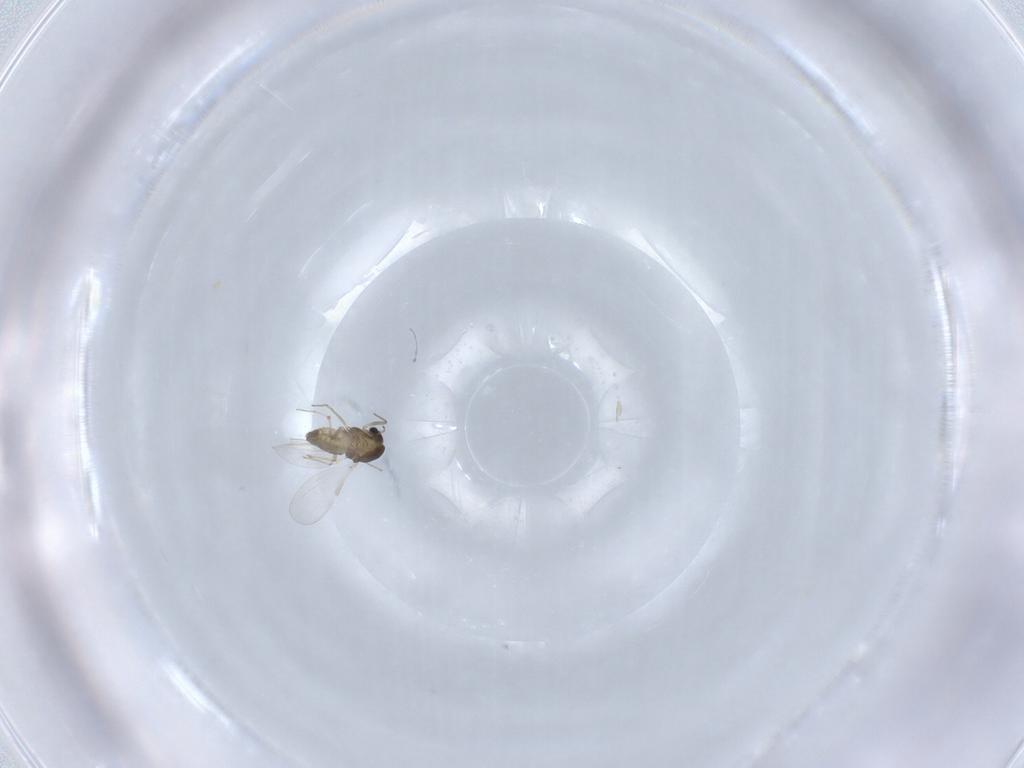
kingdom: Animalia
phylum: Arthropoda
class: Insecta
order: Diptera
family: Chironomidae
